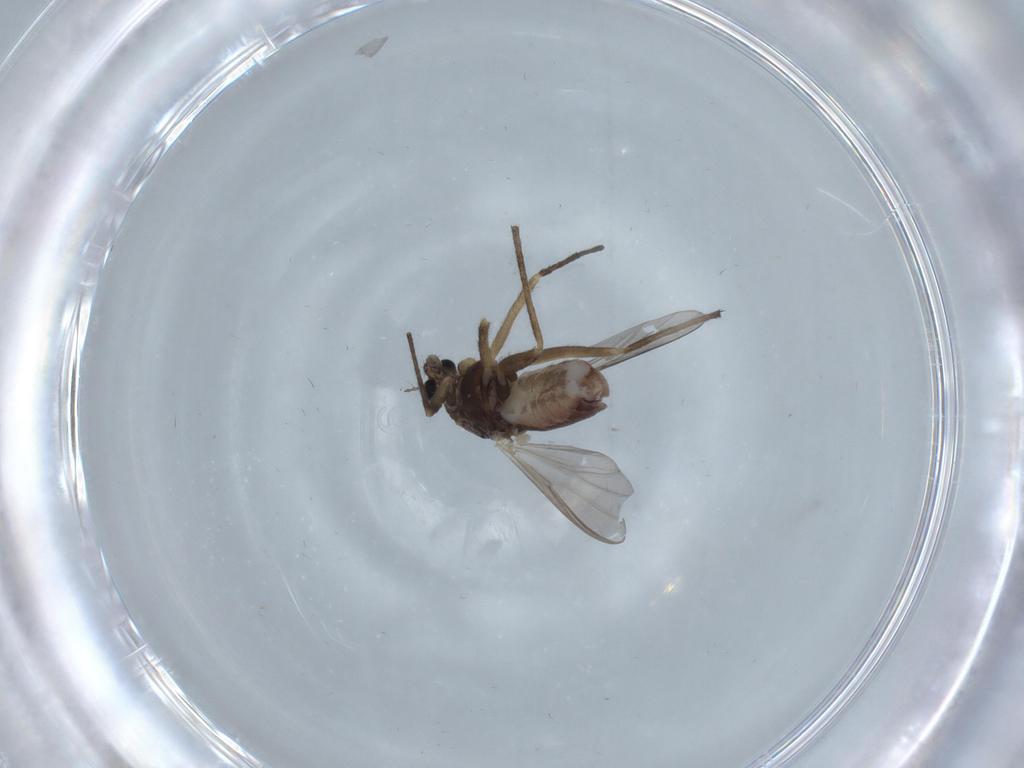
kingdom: Animalia
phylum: Arthropoda
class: Insecta
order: Diptera
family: Chironomidae
